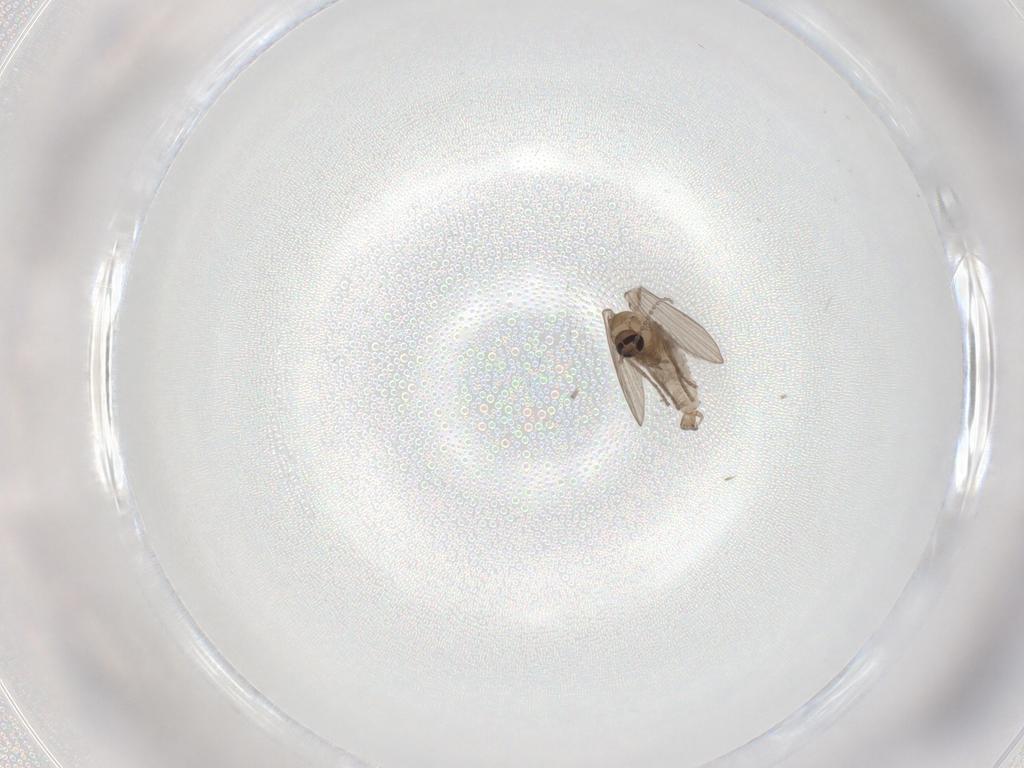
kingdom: Animalia
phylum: Arthropoda
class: Insecta
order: Diptera
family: Cecidomyiidae
